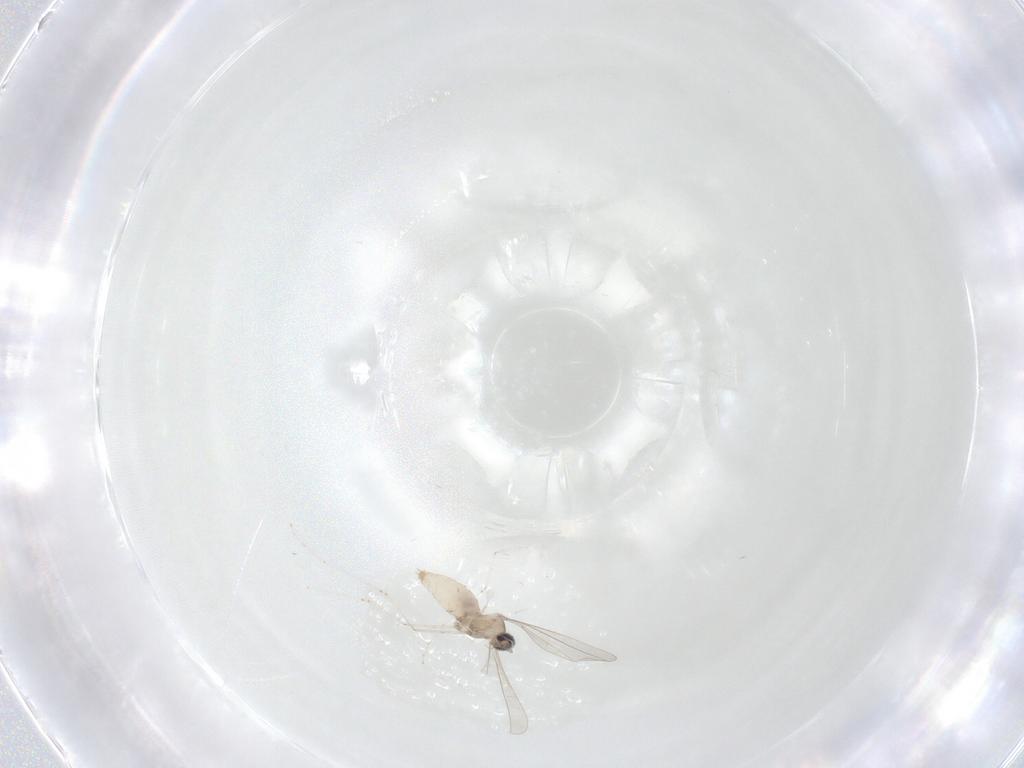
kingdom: Animalia
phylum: Arthropoda
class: Insecta
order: Diptera
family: Cecidomyiidae
